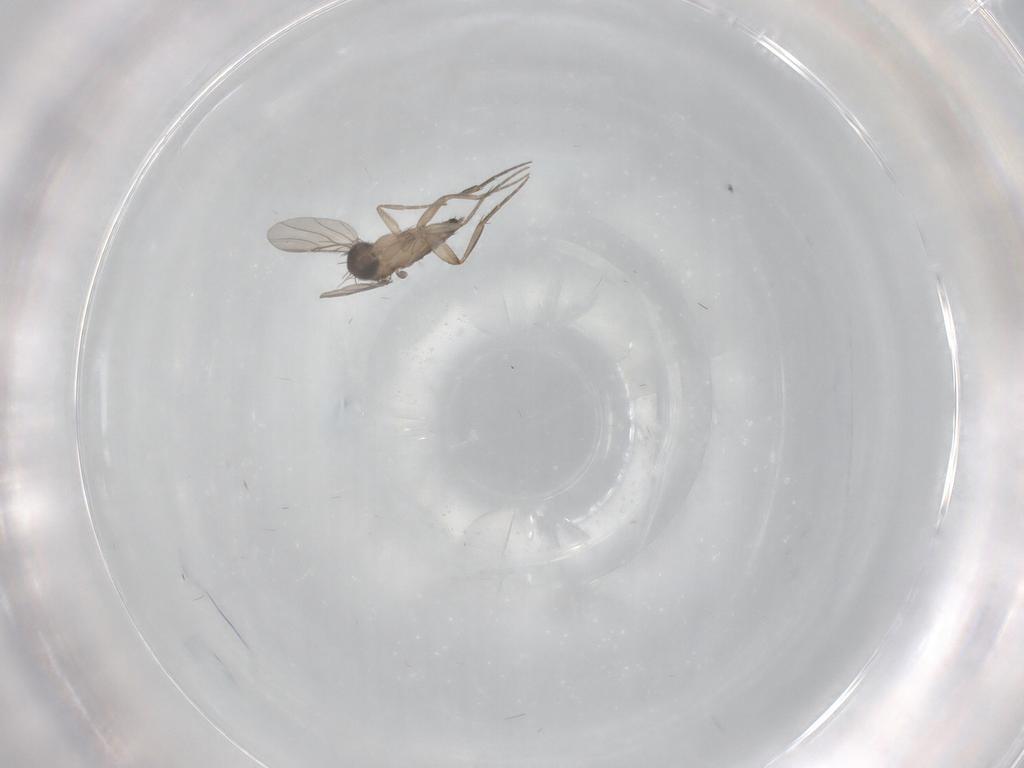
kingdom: Animalia
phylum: Arthropoda
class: Insecta
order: Diptera
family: Phoridae
